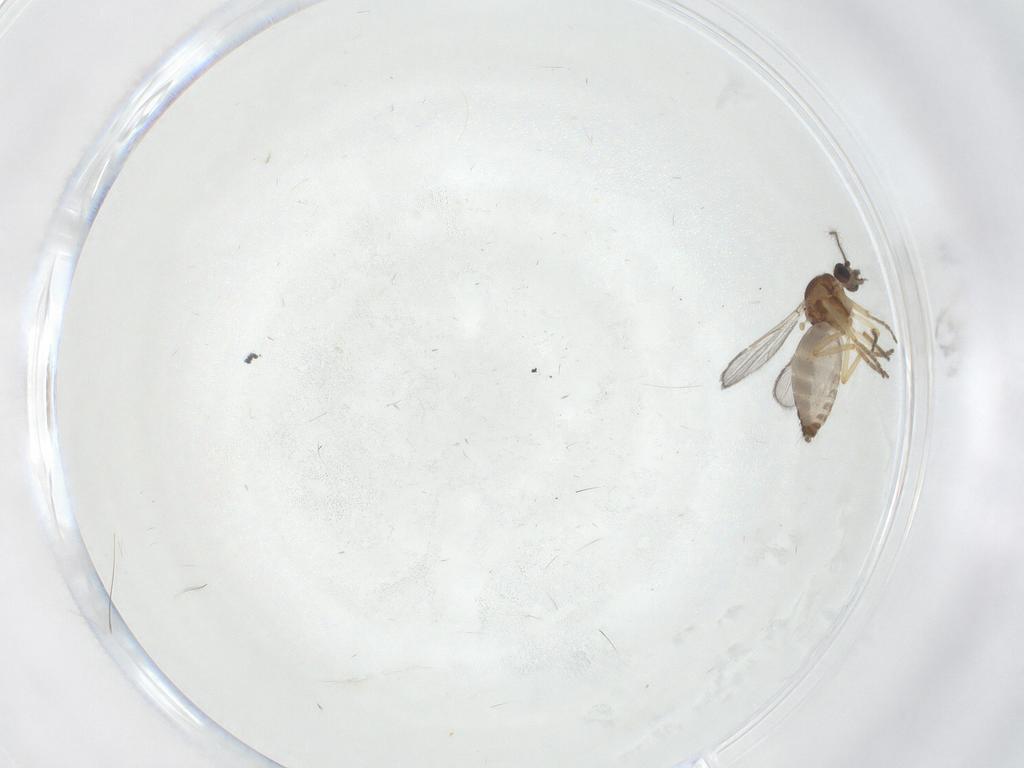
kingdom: Animalia
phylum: Arthropoda
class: Insecta
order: Diptera
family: Ceratopogonidae
